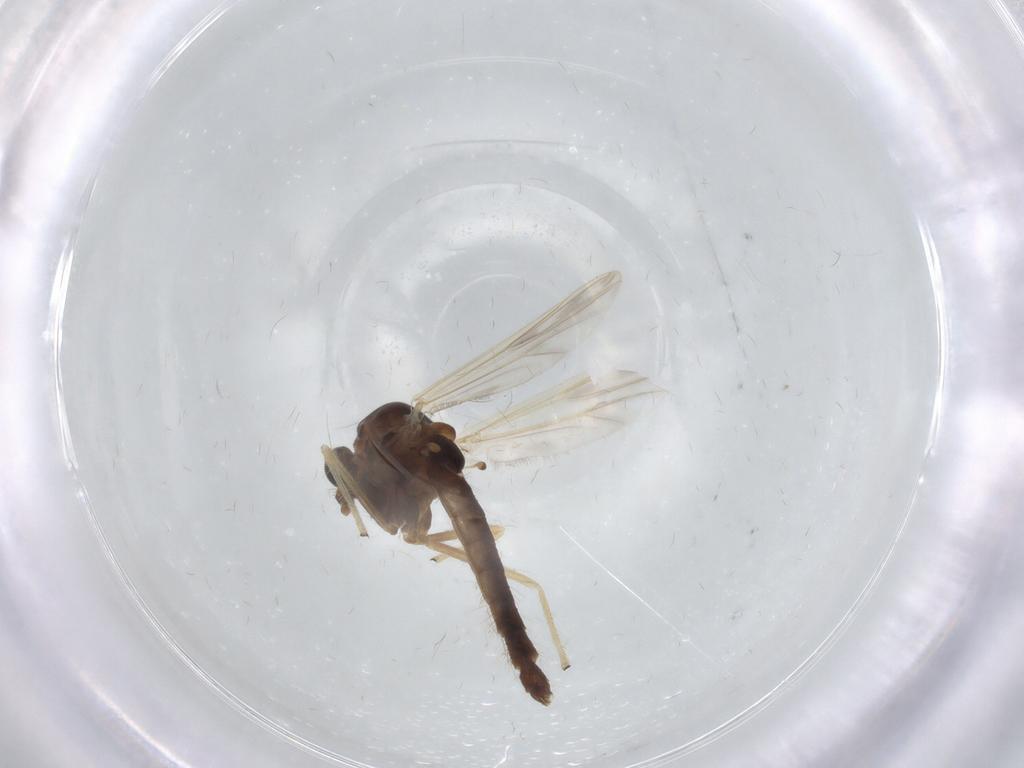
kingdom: Animalia
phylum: Arthropoda
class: Insecta
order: Diptera
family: Chironomidae
